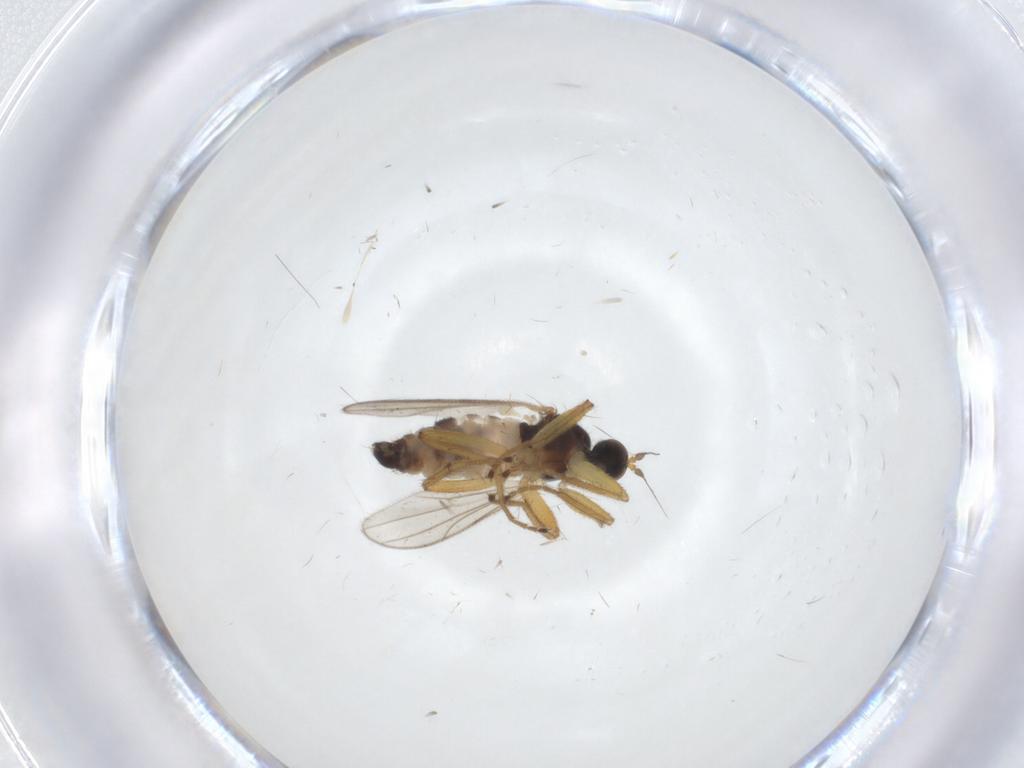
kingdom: Animalia
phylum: Arthropoda
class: Insecta
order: Diptera
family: Hybotidae
